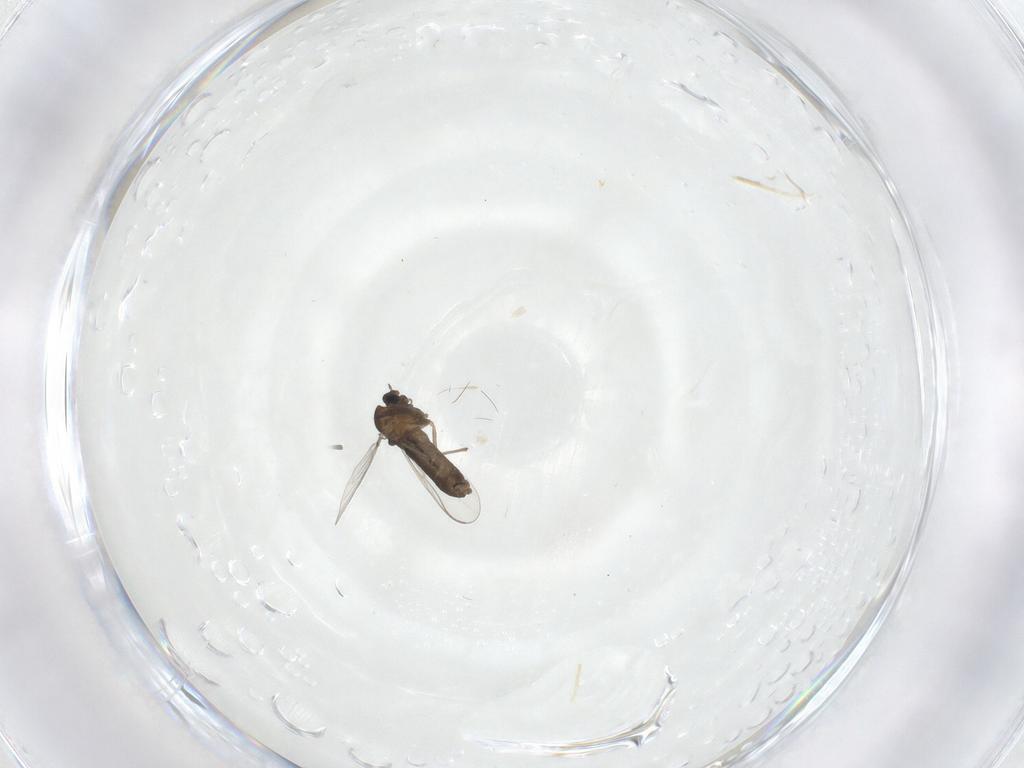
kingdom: Animalia
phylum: Arthropoda
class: Insecta
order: Diptera
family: Chironomidae
